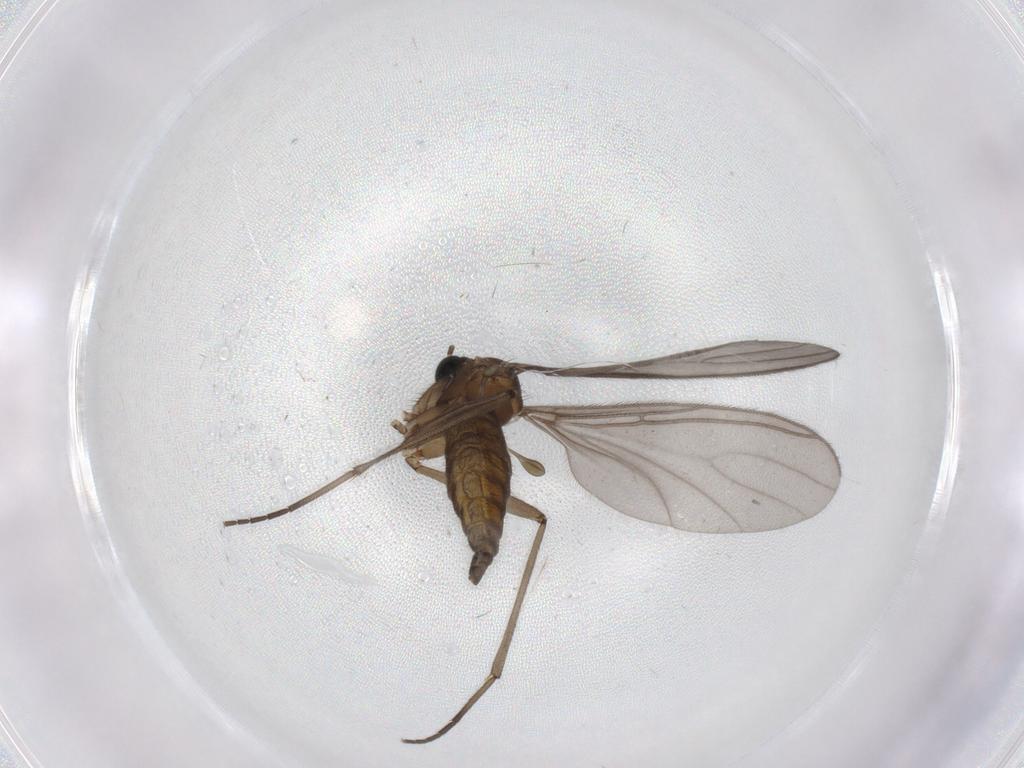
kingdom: Animalia
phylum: Arthropoda
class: Insecta
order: Diptera
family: Sciaridae
